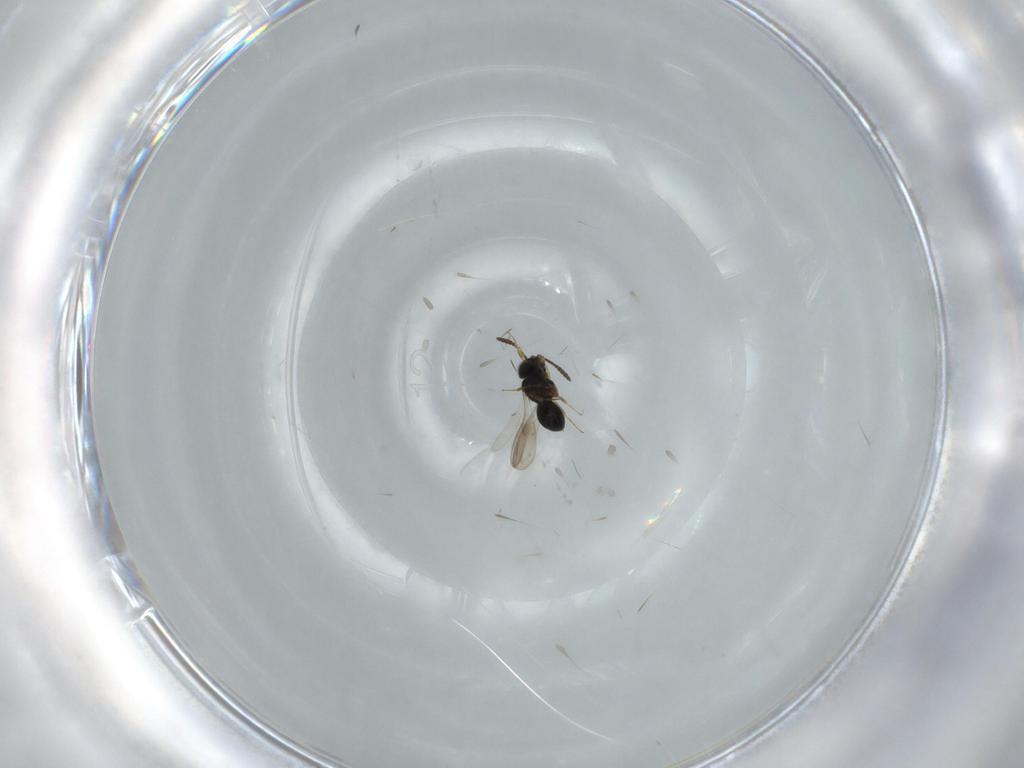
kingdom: Animalia
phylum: Arthropoda
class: Insecta
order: Hymenoptera
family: Scelionidae
